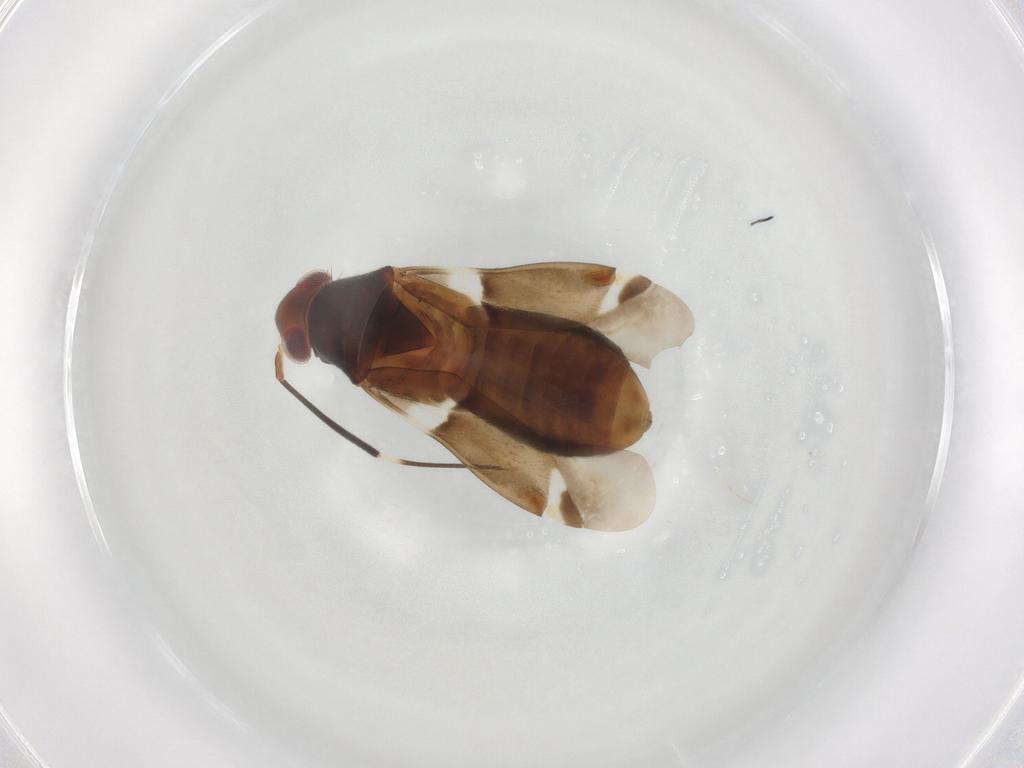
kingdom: Animalia
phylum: Arthropoda
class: Insecta
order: Hemiptera
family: Miridae
